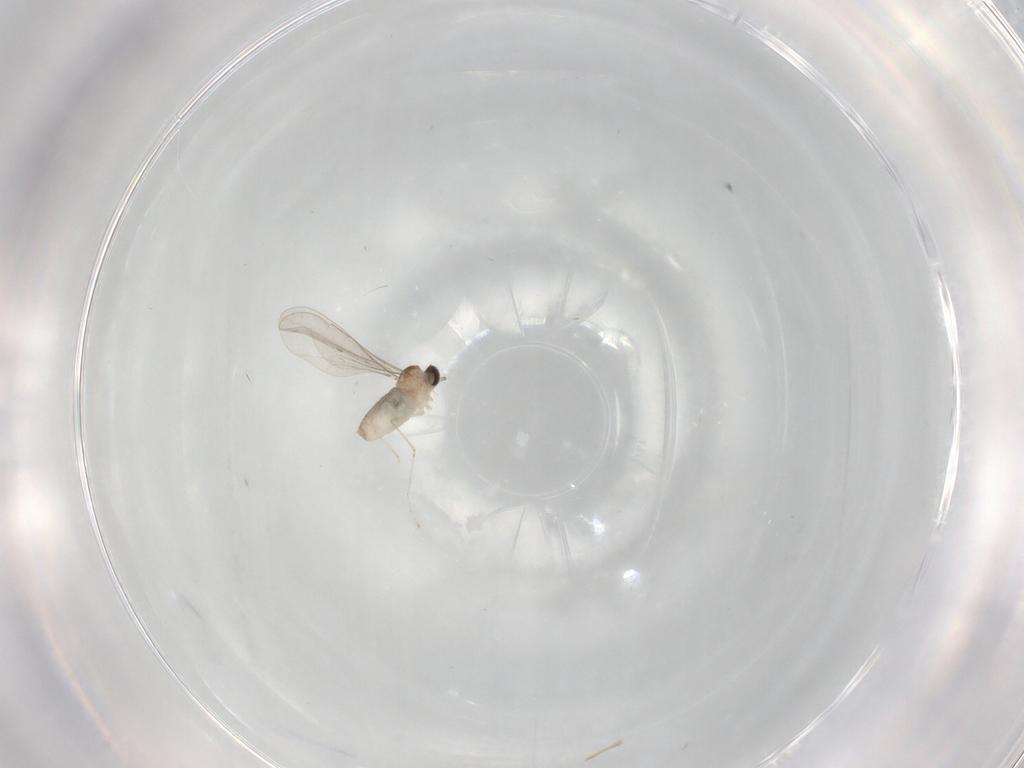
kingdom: Animalia
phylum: Arthropoda
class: Insecta
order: Diptera
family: Cecidomyiidae
